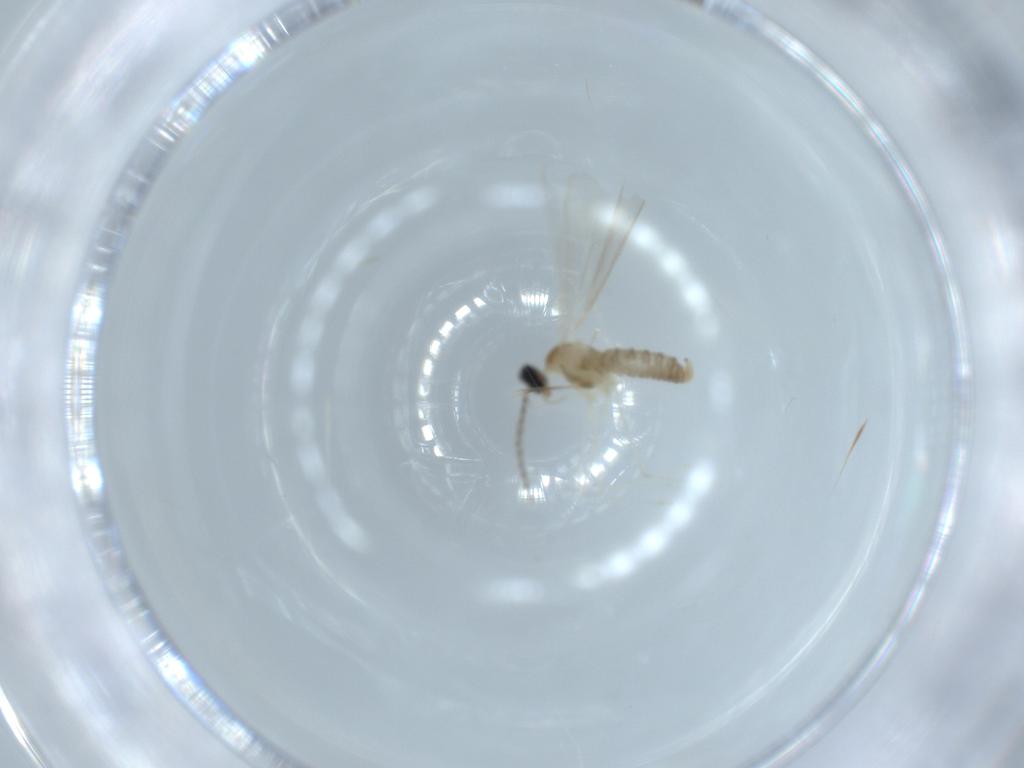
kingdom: Animalia
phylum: Arthropoda
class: Insecta
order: Diptera
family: Cecidomyiidae
